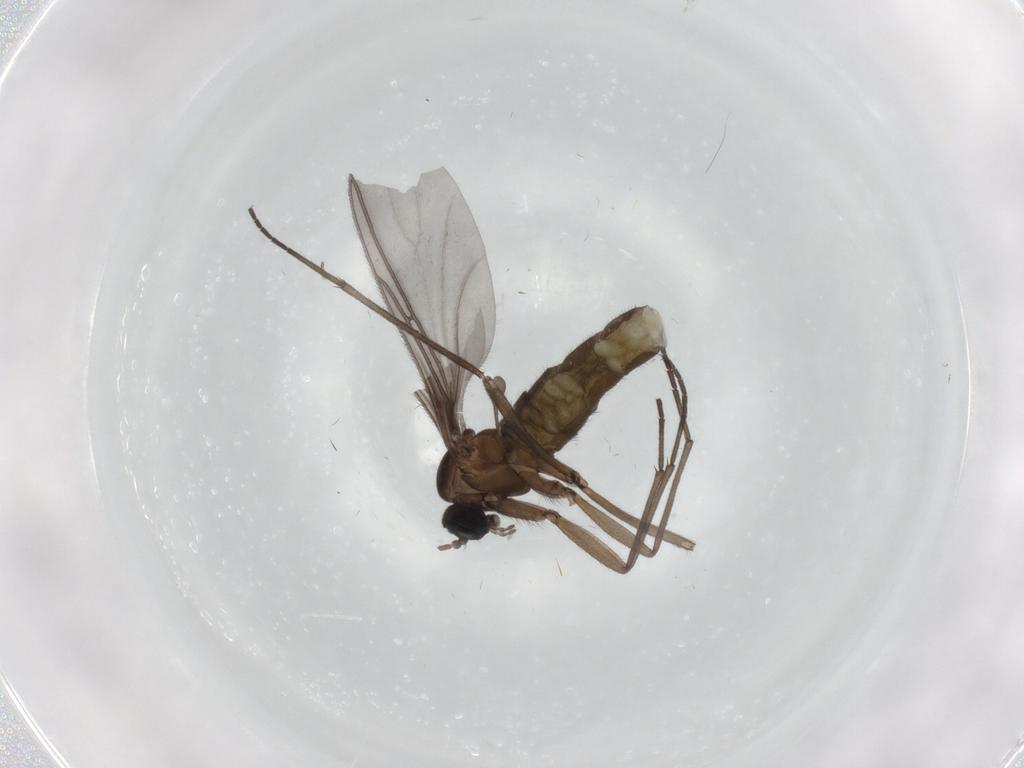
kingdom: Animalia
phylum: Arthropoda
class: Insecta
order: Diptera
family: Sciaridae
